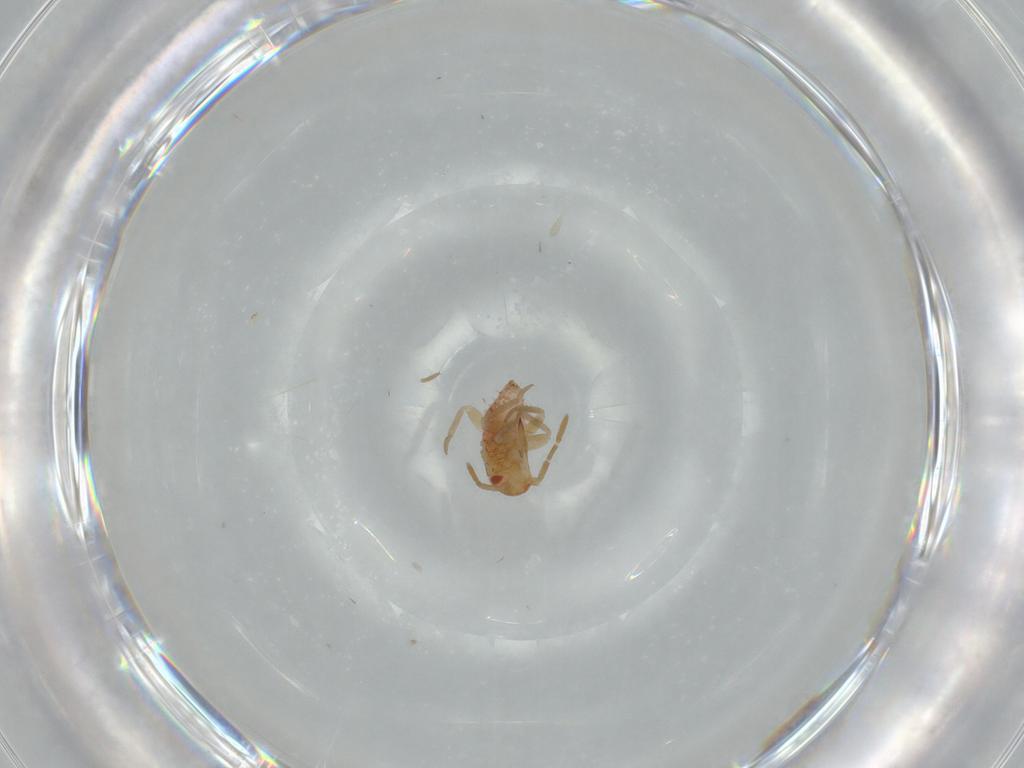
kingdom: Animalia
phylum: Arthropoda
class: Insecta
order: Hemiptera
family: Miridae
